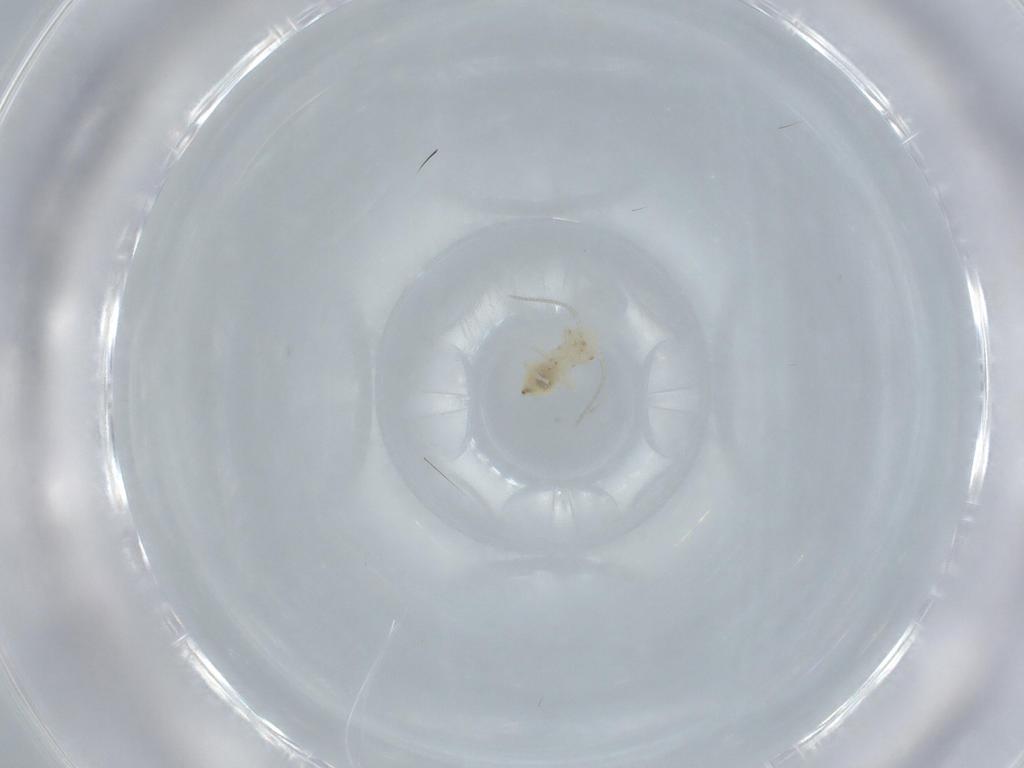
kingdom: Animalia
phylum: Arthropoda
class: Insecta
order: Psocodea
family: Caeciliusidae
